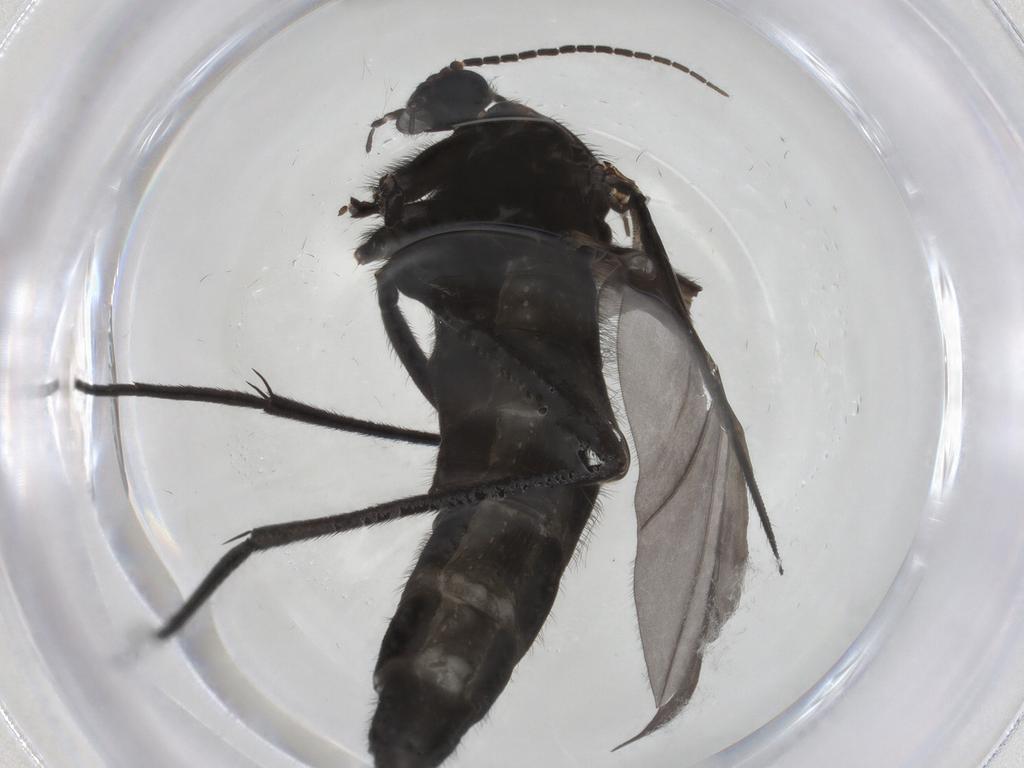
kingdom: Animalia
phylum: Arthropoda
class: Insecta
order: Diptera
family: Sciaridae
